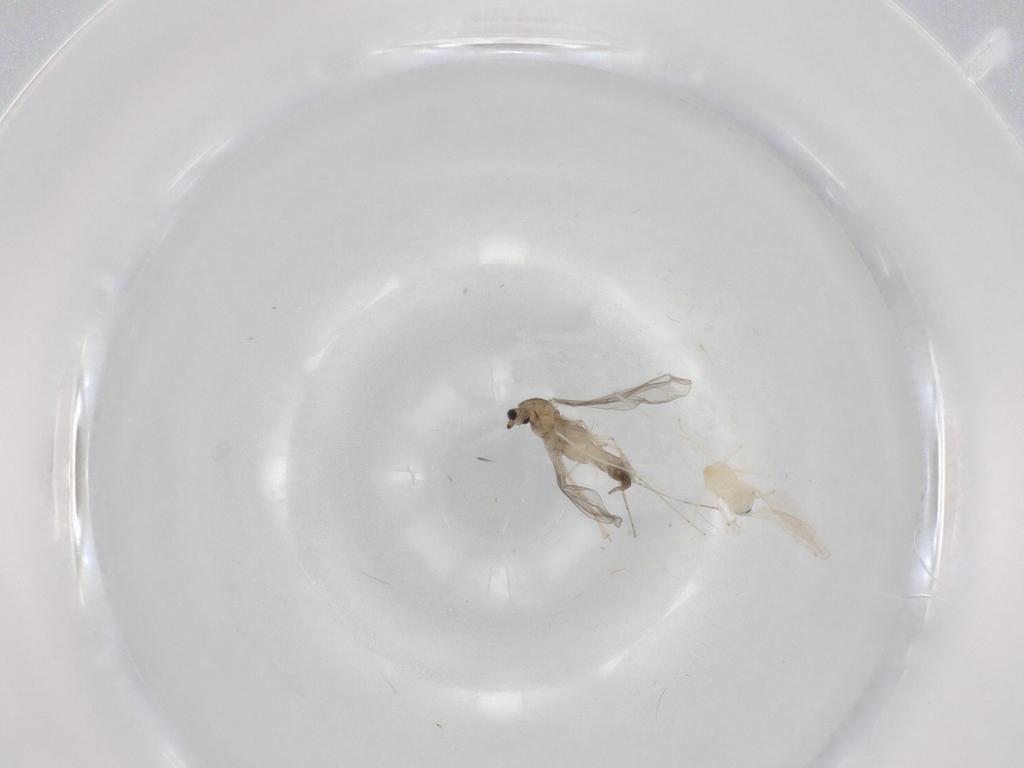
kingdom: Animalia
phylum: Arthropoda
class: Insecta
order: Diptera
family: Cecidomyiidae
